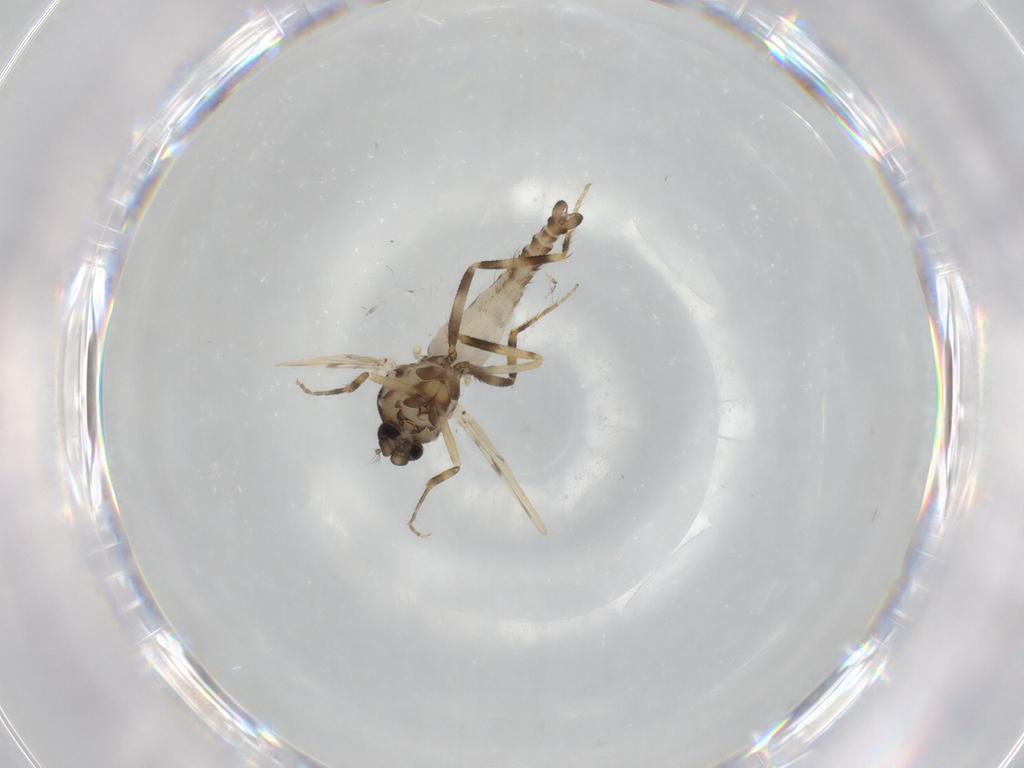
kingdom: Animalia
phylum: Arthropoda
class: Insecta
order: Diptera
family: Ceratopogonidae
